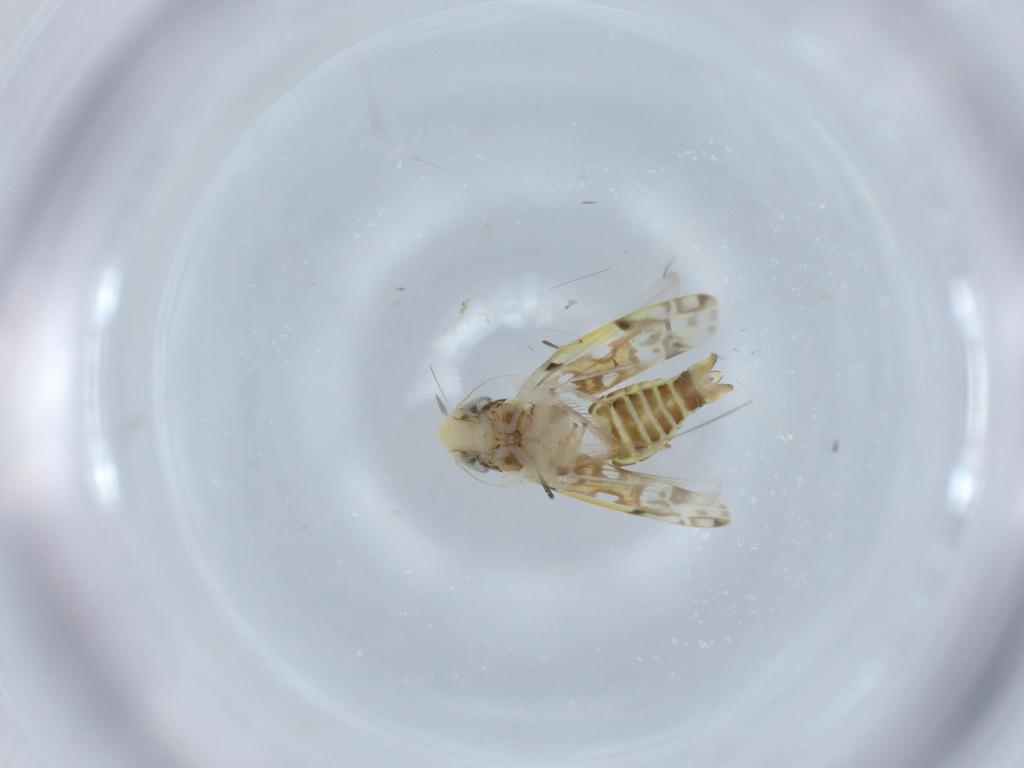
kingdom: Animalia
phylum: Arthropoda
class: Insecta
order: Hemiptera
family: Cicadellidae
